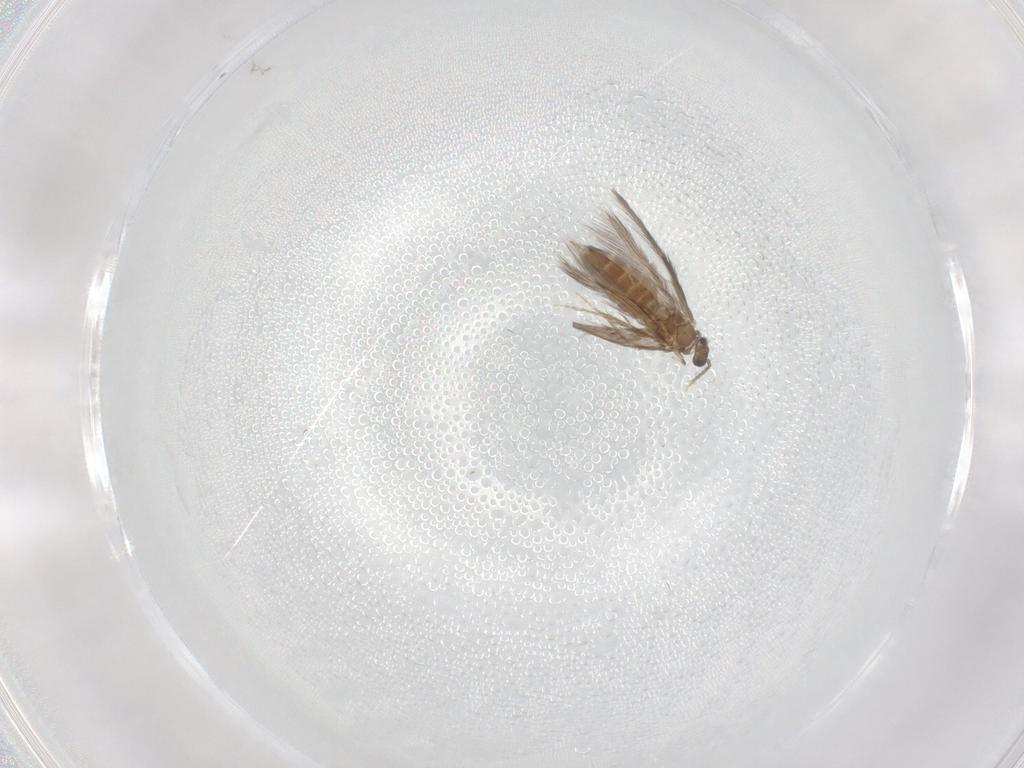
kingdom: Animalia
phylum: Arthropoda
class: Insecta
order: Trichoptera
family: Hydroptilidae
